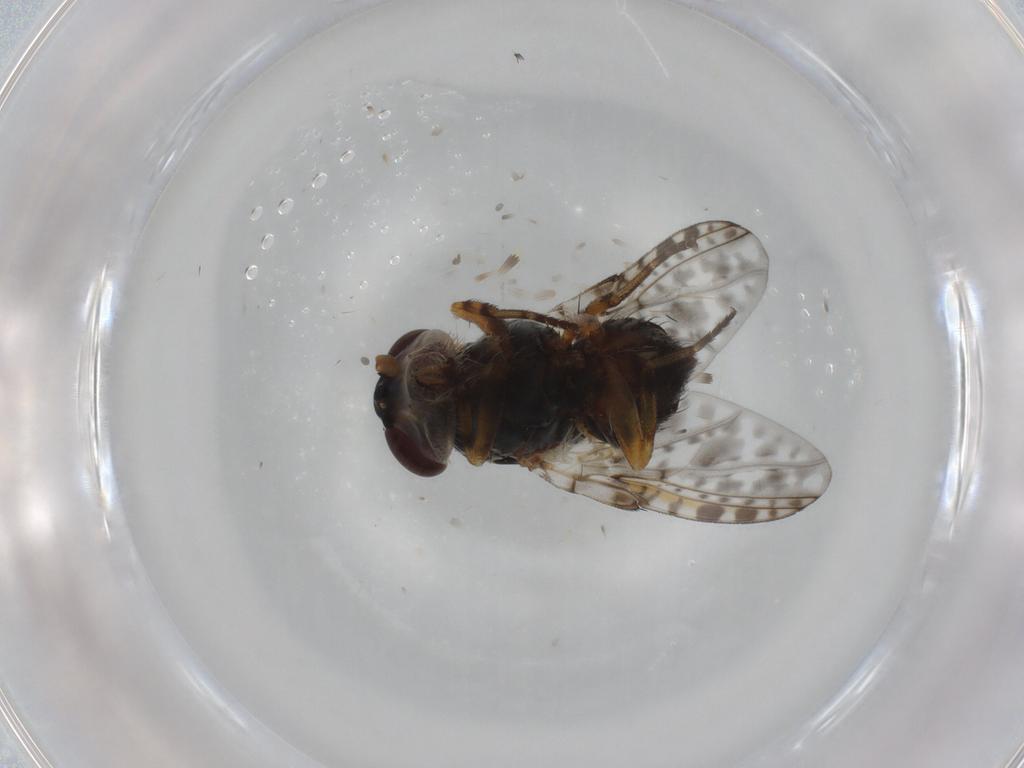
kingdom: Animalia
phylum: Arthropoda
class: Insecta
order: Diptera
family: Odiniidae
